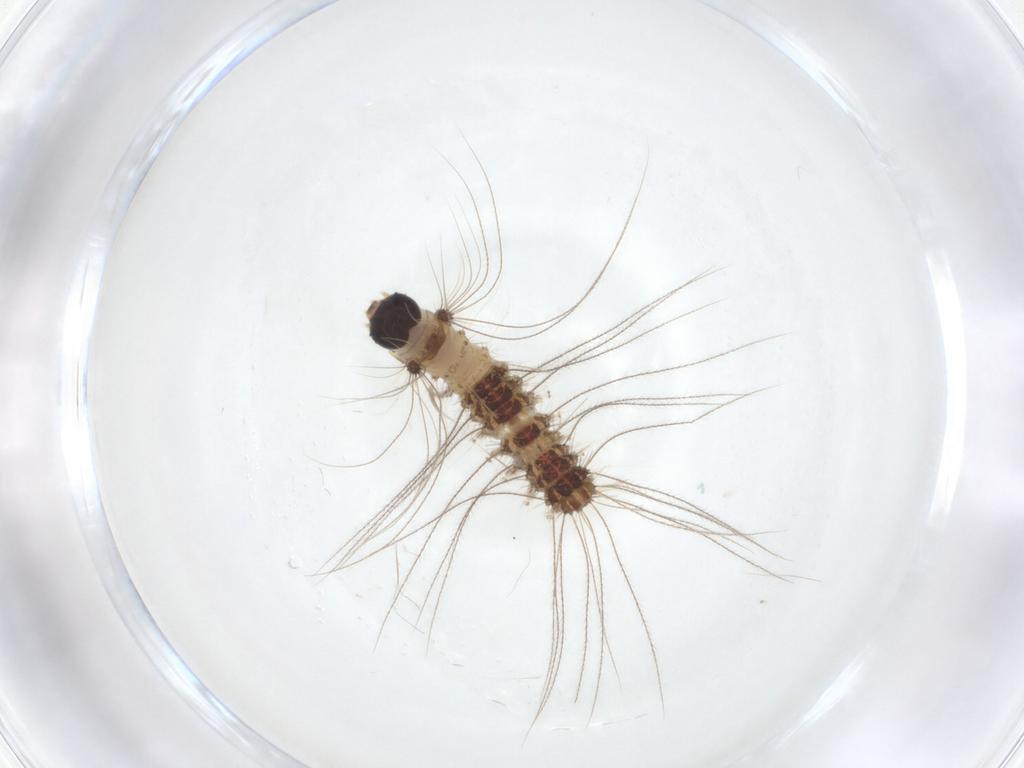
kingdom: Animalia
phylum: Arthropoda
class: Insecta
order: Lepidoptera
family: Erebidae
